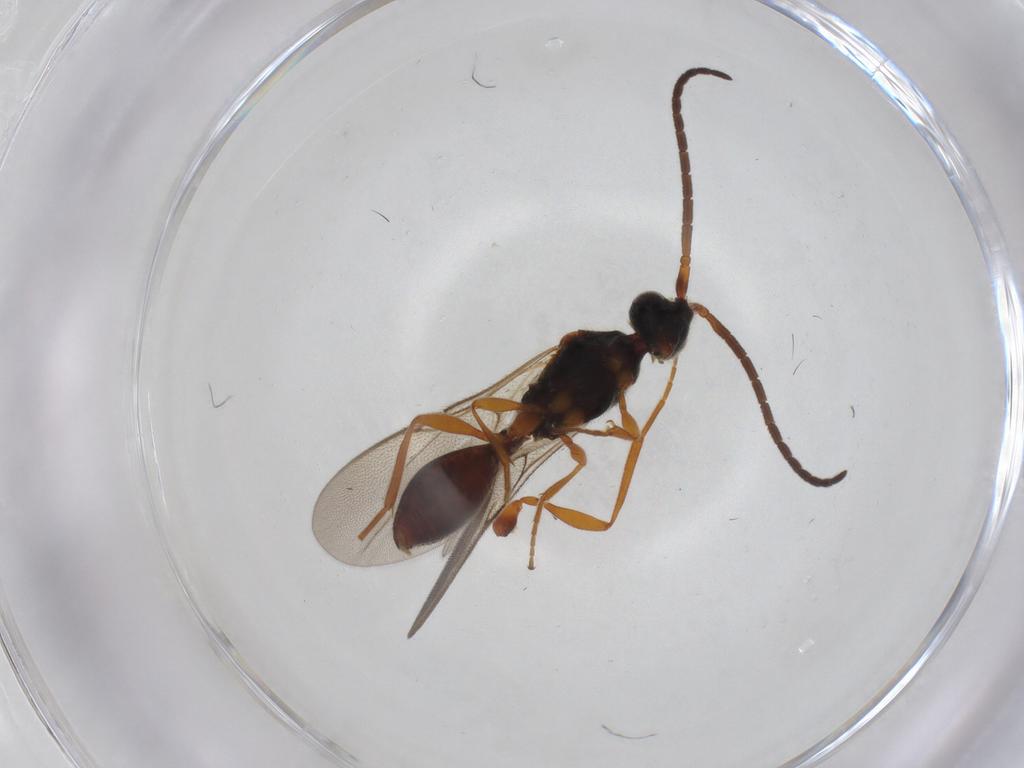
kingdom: Animalia
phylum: Arthropoda
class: Insecta
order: Hymenoptera
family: Diapriidae
